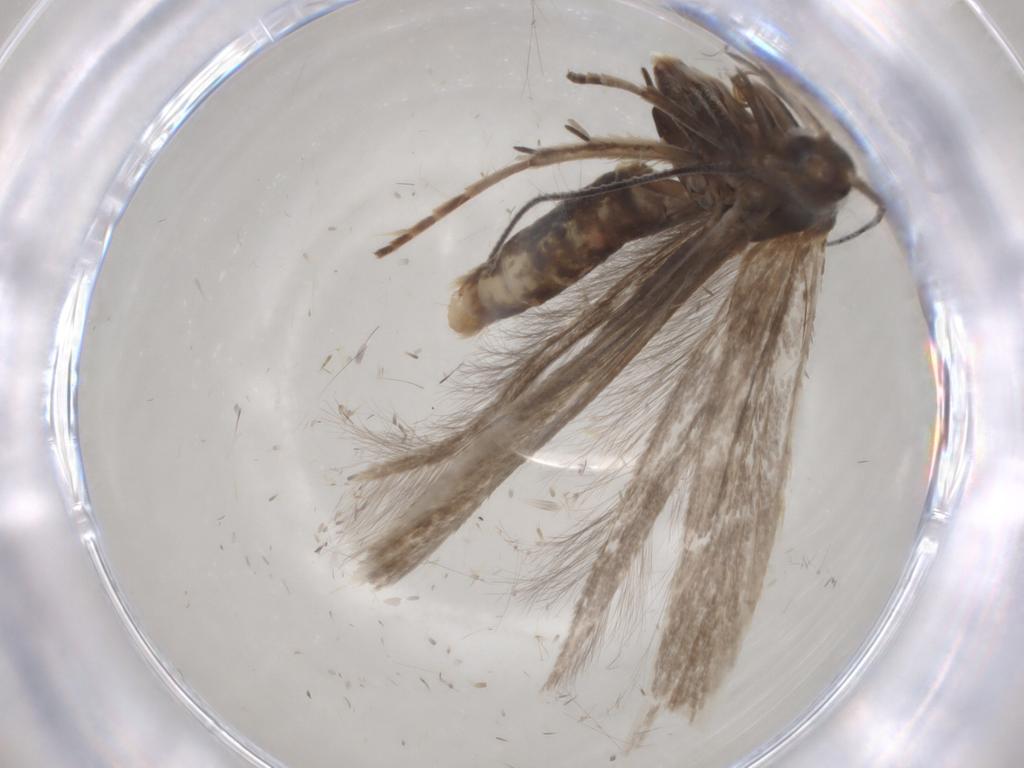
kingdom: Animalia
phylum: Arthropoda
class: Insecta
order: Lepidoptera
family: Coleophoridae
